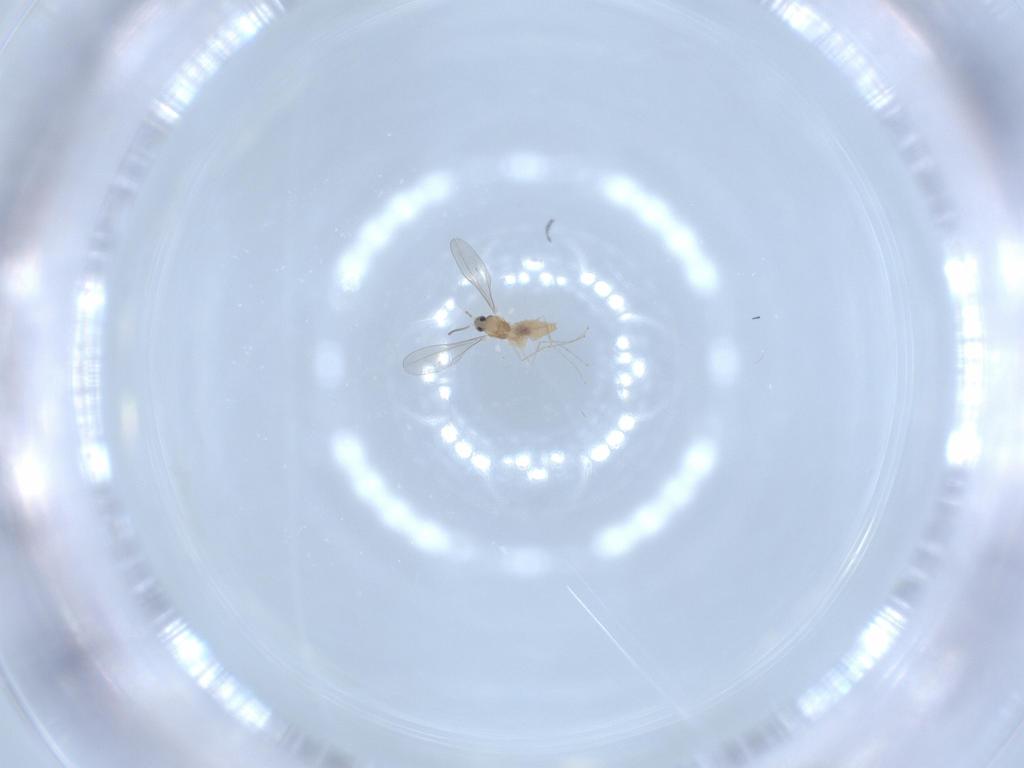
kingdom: Animalia
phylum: Arthropoda
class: Insecta
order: Diptera
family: Cecidomyiidae
